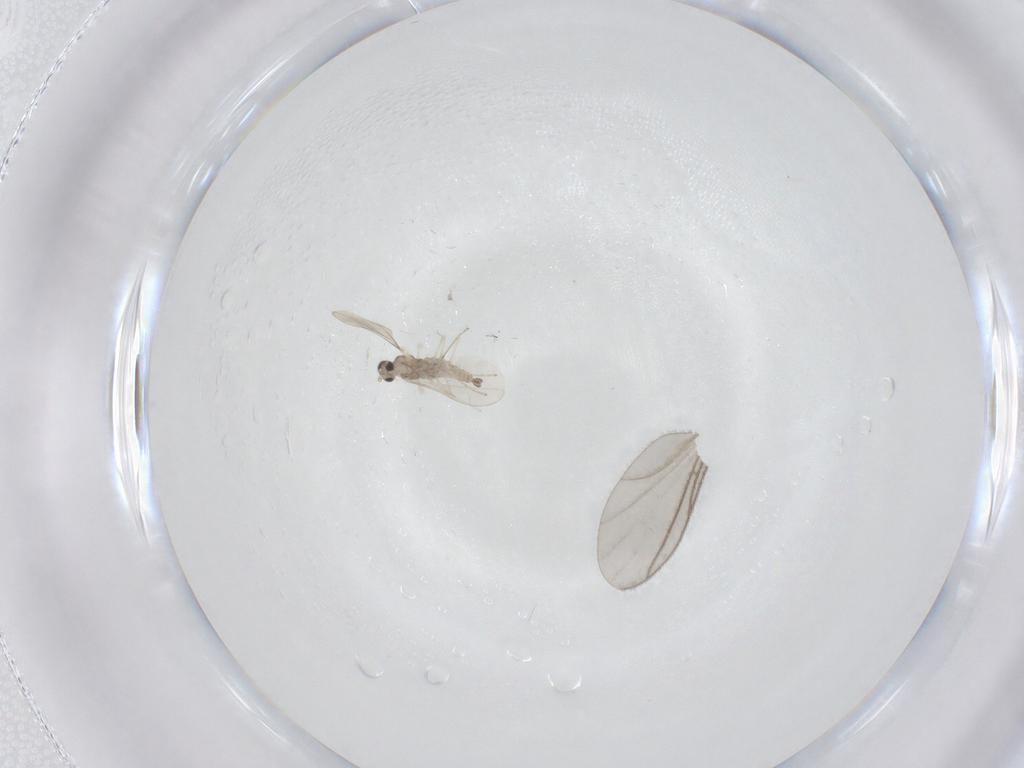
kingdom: Animalia
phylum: Arthropoda
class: Insecta
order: Diptera
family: Cecidomyiidae
